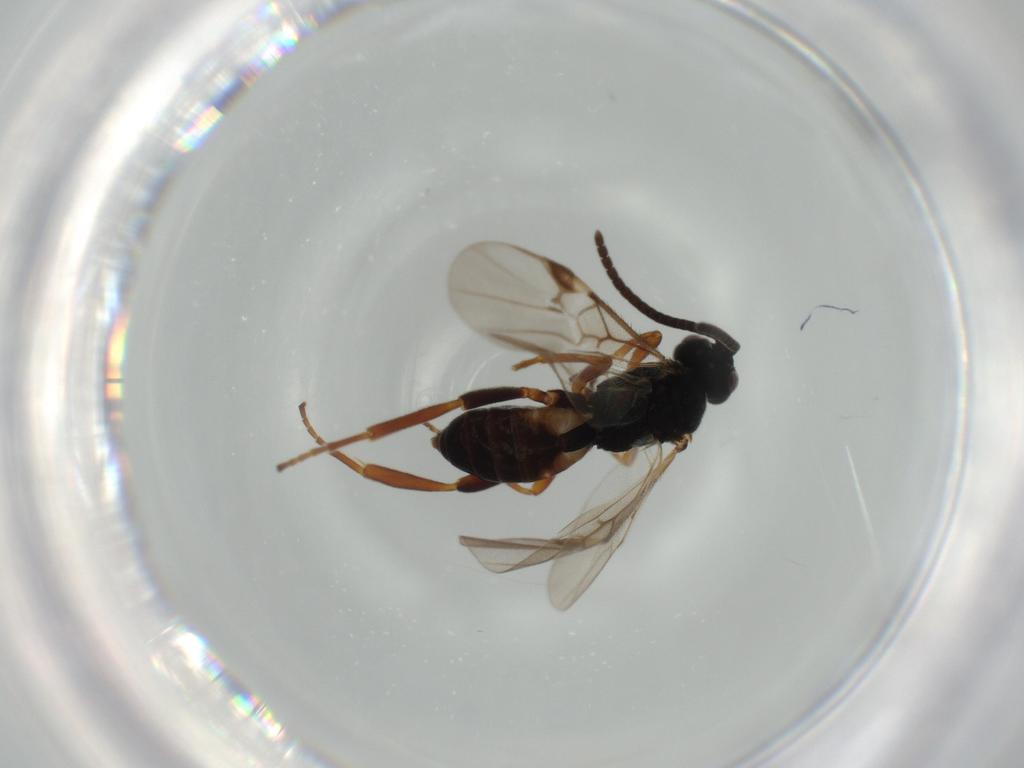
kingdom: Animalia
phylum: Arthropoda
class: Insecta
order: Hymenoptera
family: Braconidae
